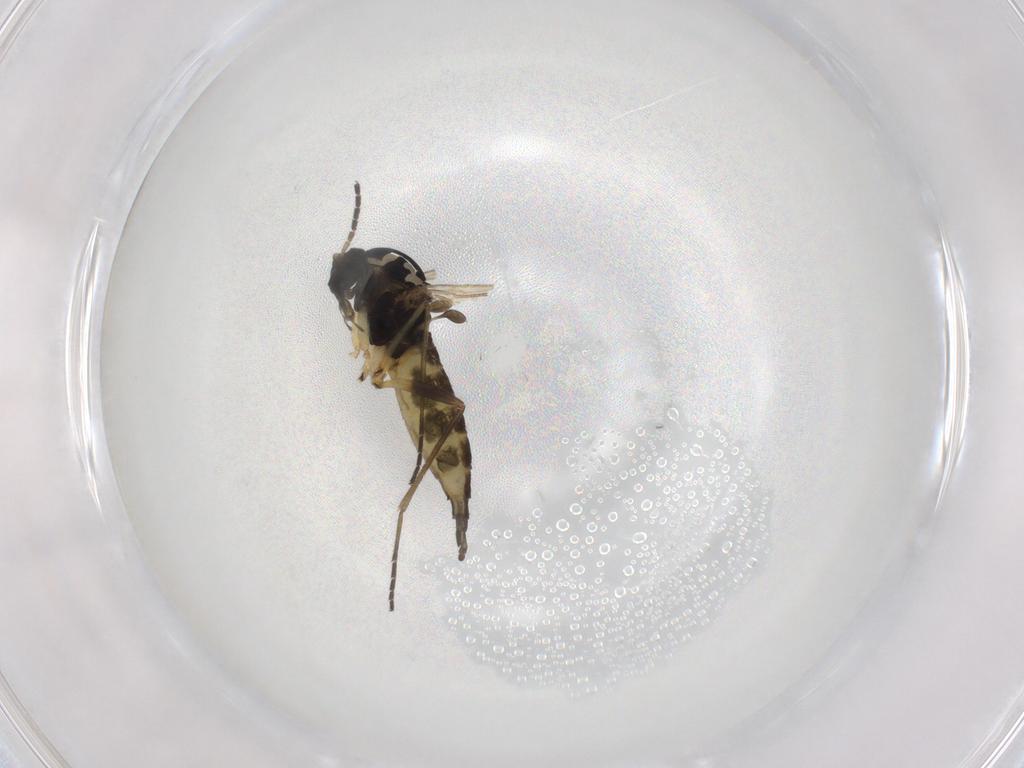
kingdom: Animalia
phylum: Arthropoda
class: Insecta
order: Diptera
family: Sciaridae
